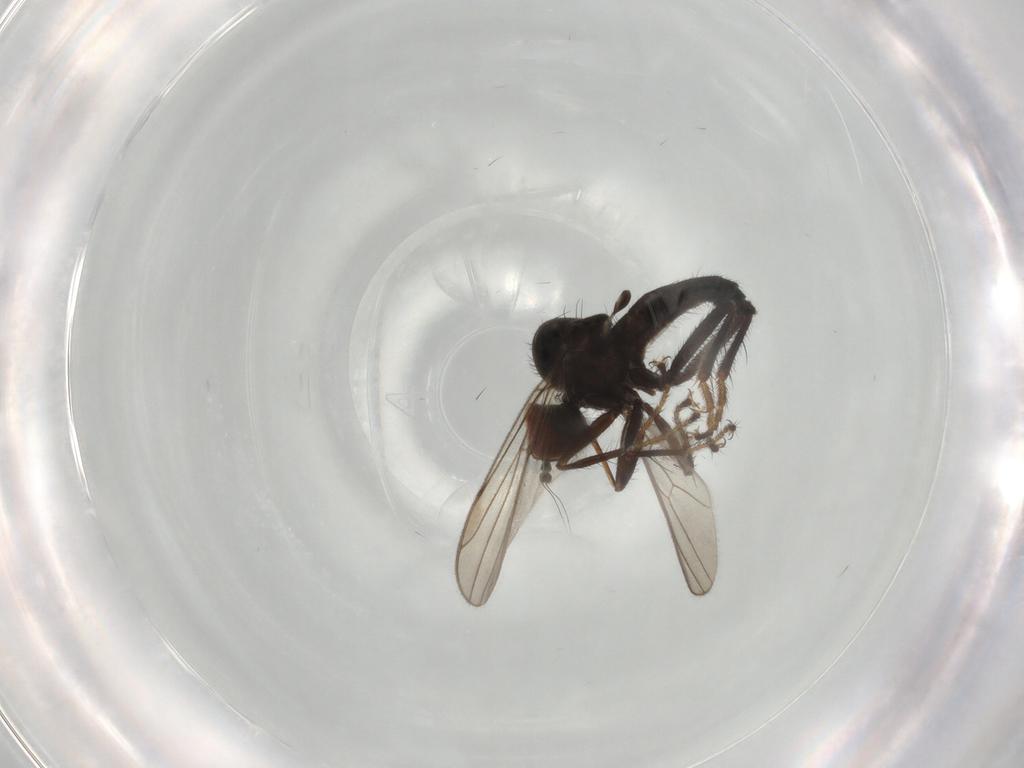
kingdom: Animalia
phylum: Arthropoda
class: Insecta
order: Diptera
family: Hybotidae
